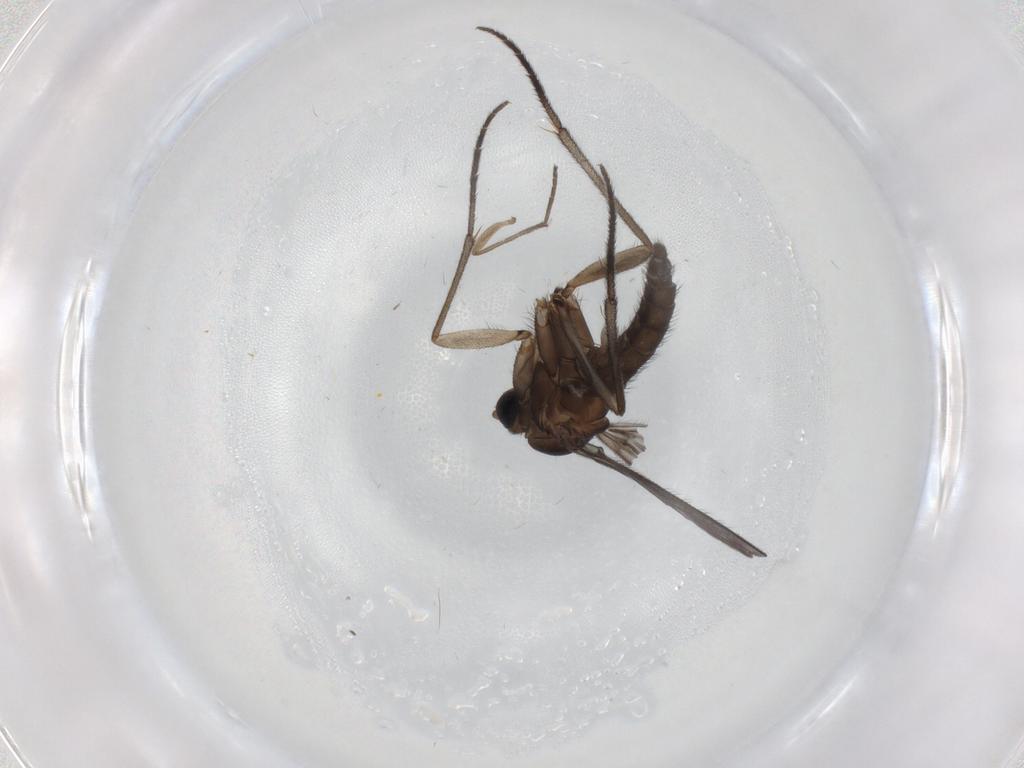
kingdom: Animalia
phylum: Arthropoda
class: Insecta
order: Diptera
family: Sciaridae
